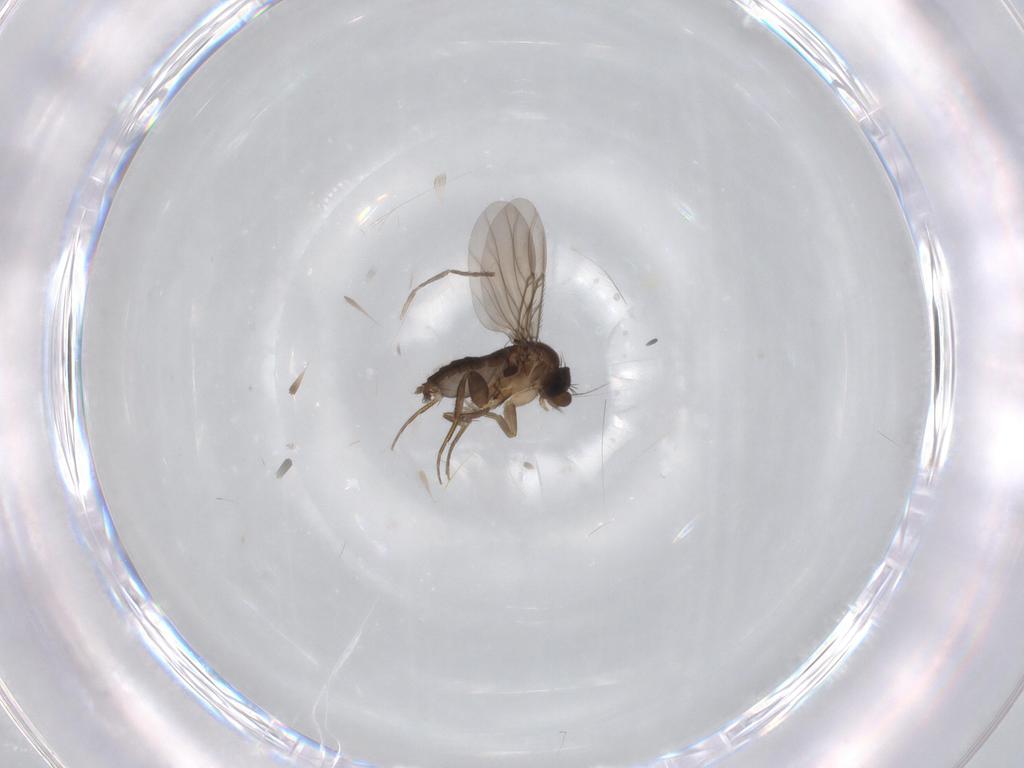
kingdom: Animalia
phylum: Arthropoda
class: Insecta
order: Diptera
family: Phoridae
